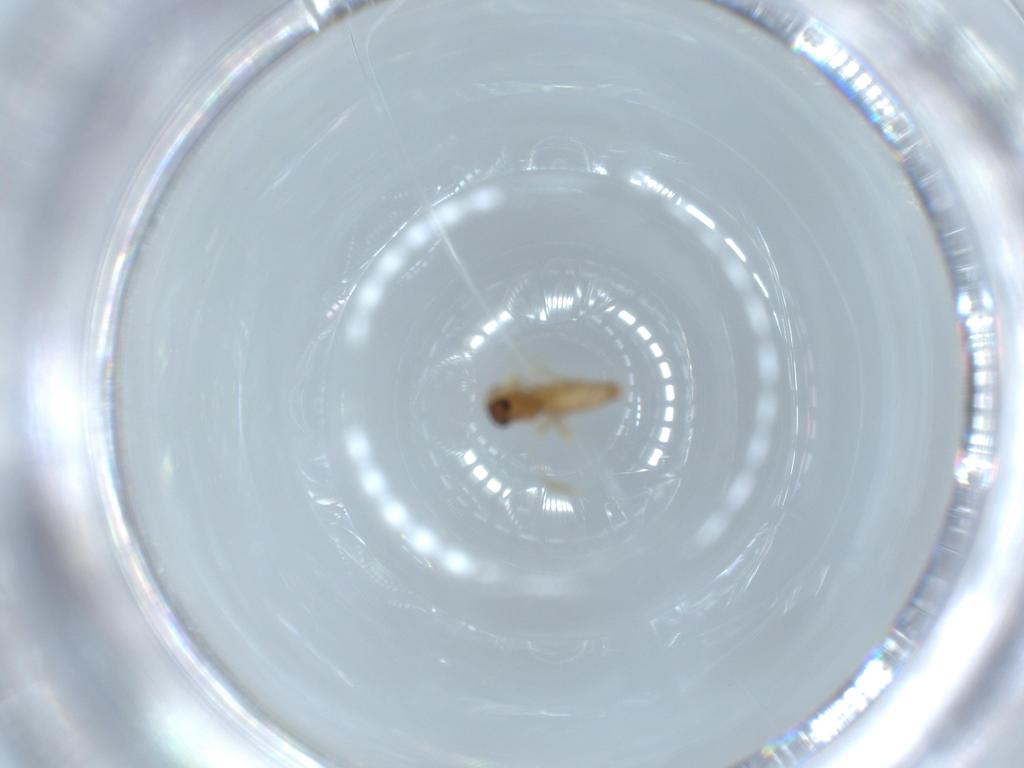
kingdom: Animalia
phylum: Arthropoda
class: Insecta
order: Diptera
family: Ceratopogonidae
